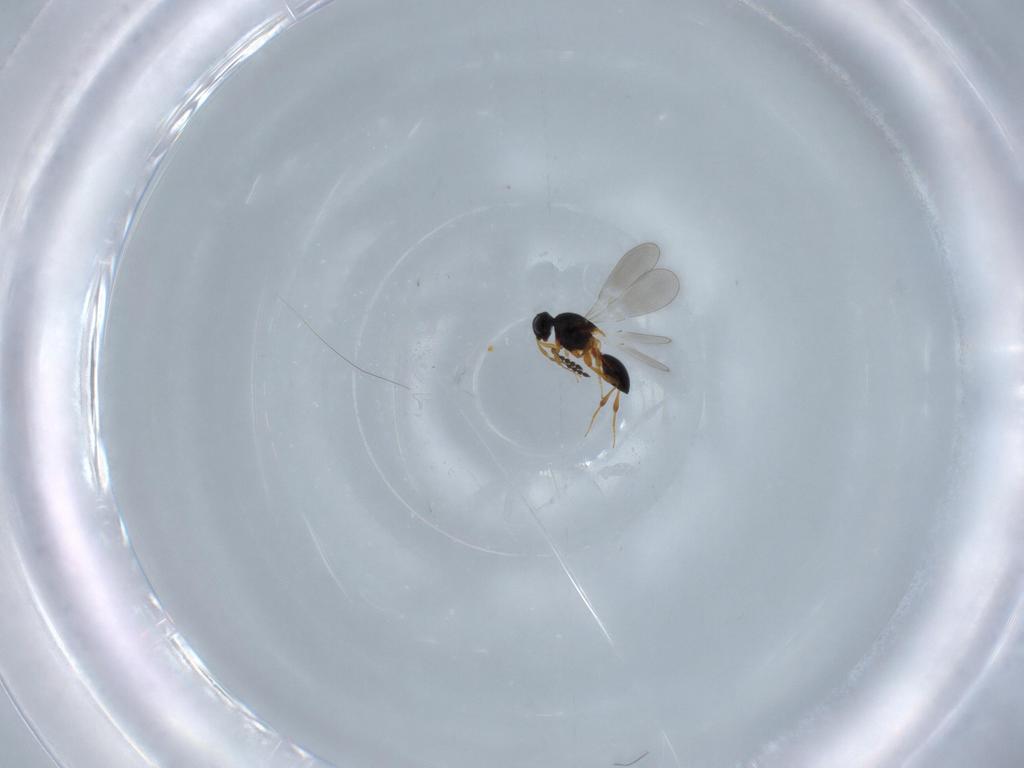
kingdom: Animalia
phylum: Arthropoda
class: Insecta
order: Hymenoptera
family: Platygastridae
